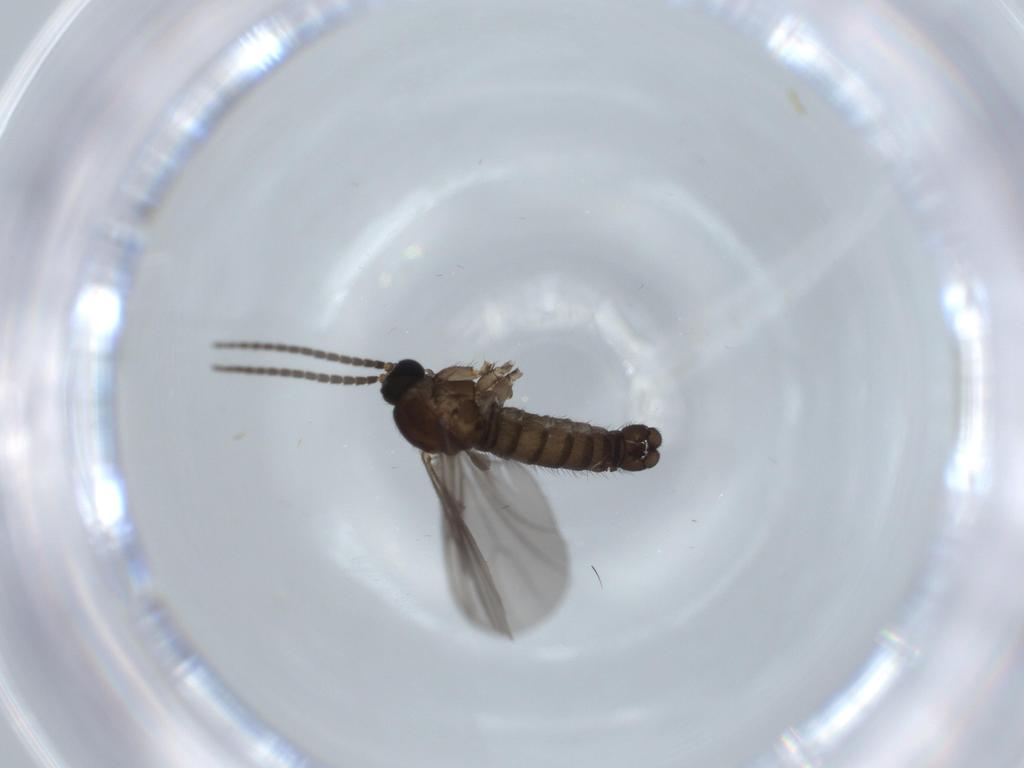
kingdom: Animalia
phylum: Arthropoda
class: Insecta
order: Diptera
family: Sciaridae
